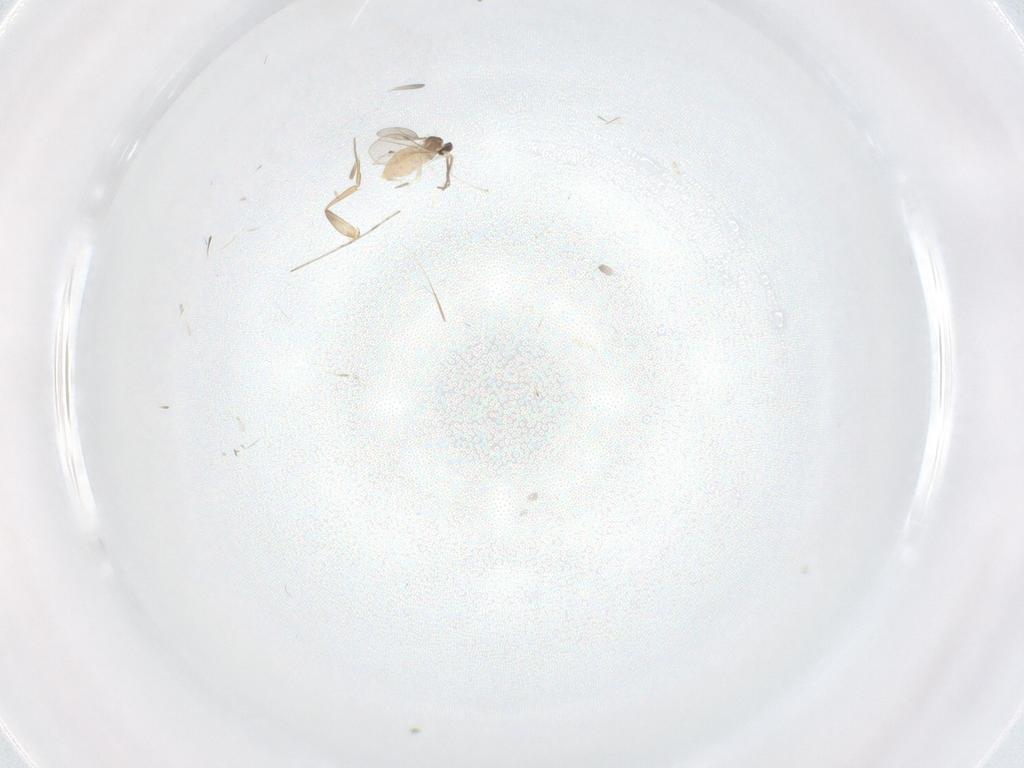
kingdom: Animalia
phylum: Arthropoda
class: Insecta
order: Diptera
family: Cecidomyiidae
